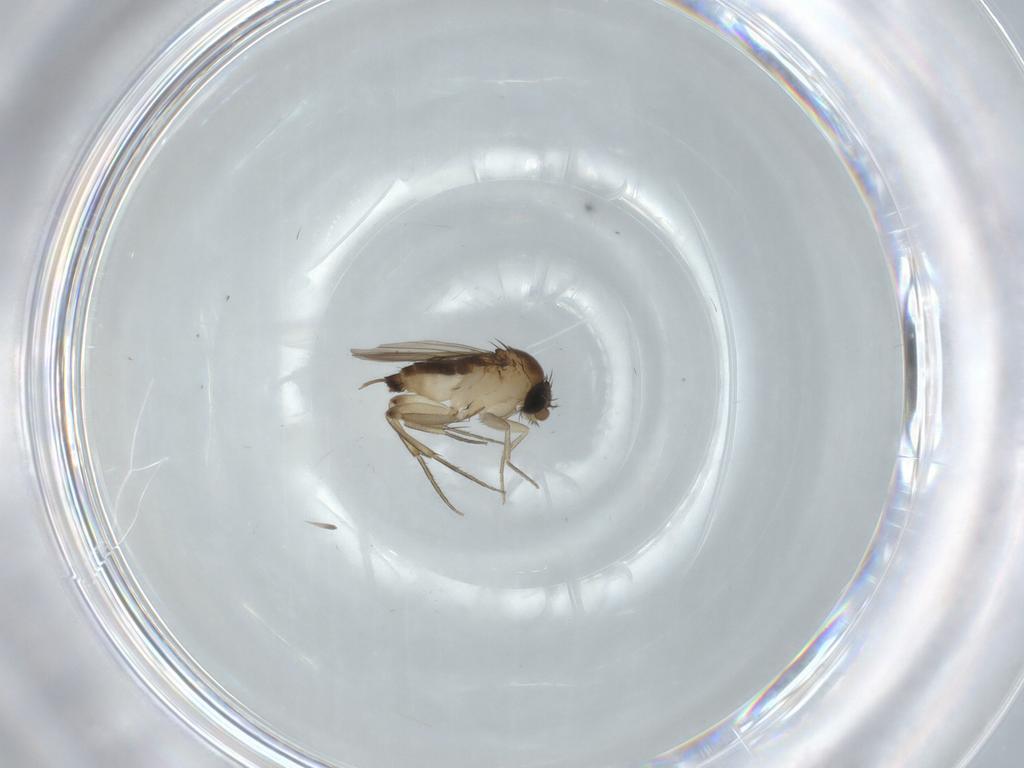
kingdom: Animalia
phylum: Arthropoda
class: Insecta
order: Diptera
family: Phoridae
